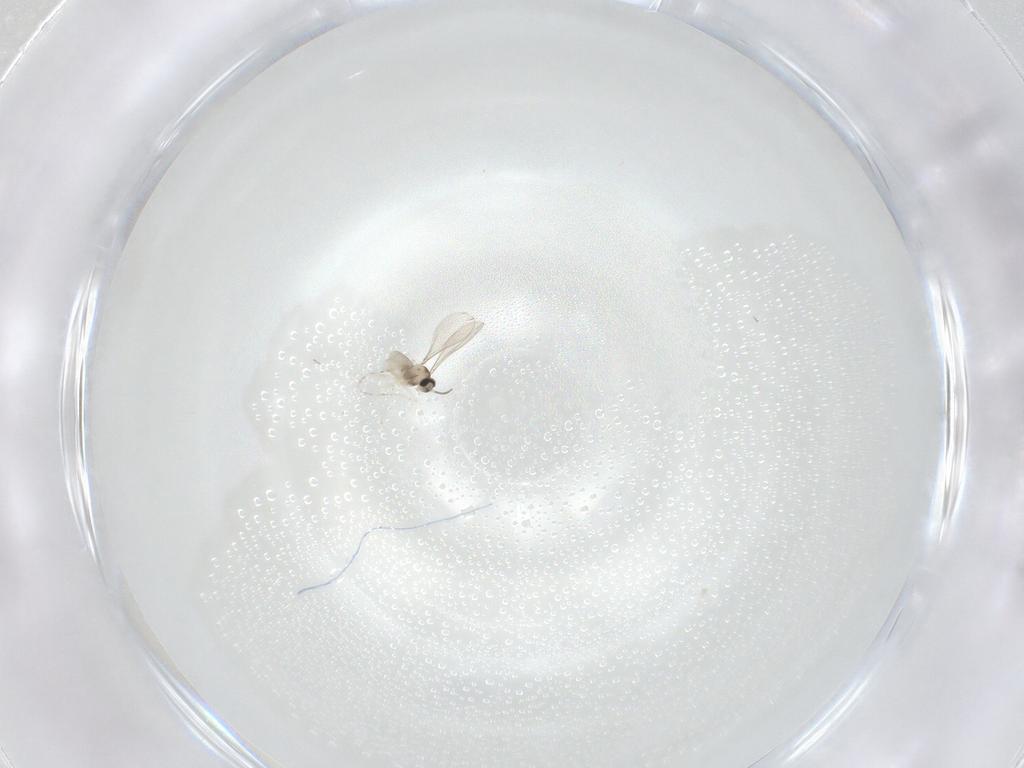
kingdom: Animalia
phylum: Arthropoda
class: Insecta
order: Diptera
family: Cecidomyiidae
